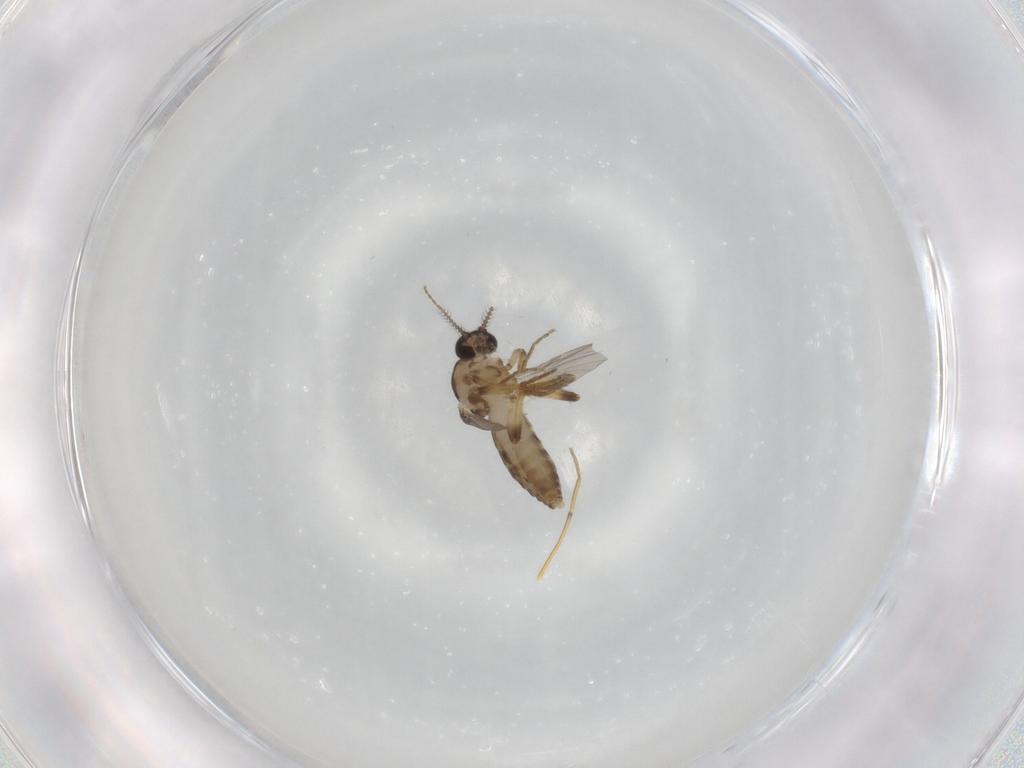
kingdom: Animalia
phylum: Arthropoda
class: Insecta
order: Diptera
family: Ceratopogonidae
